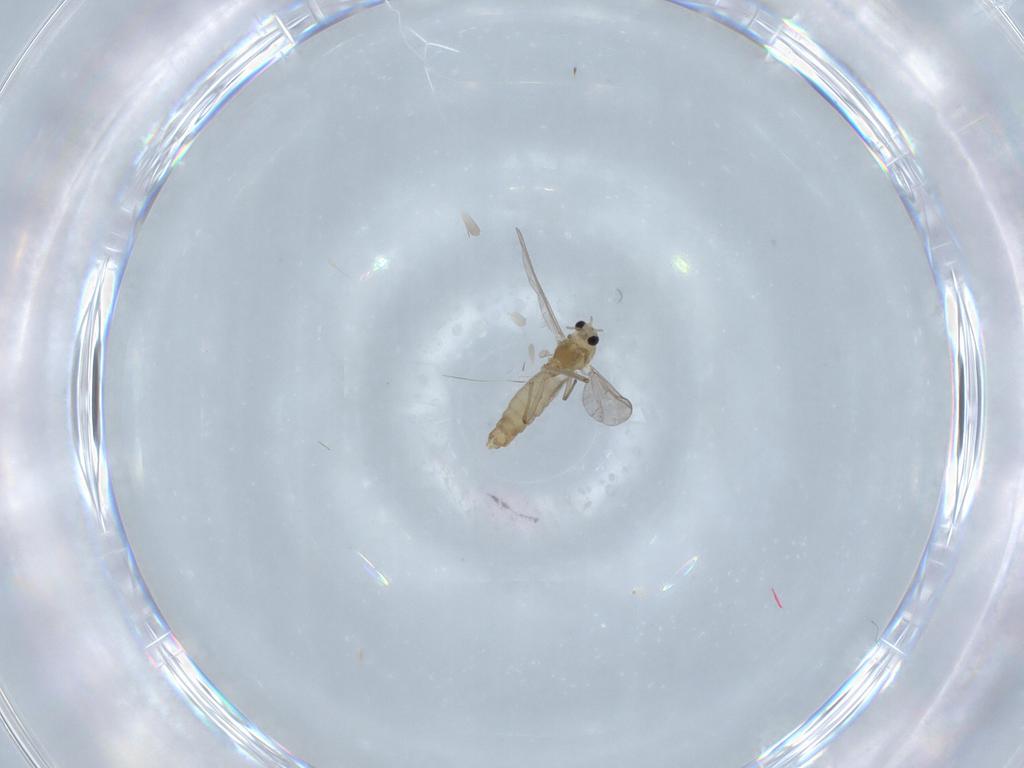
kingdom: Animalia
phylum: Arthropoda
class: Insecta
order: Diptera
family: Chironomidae
